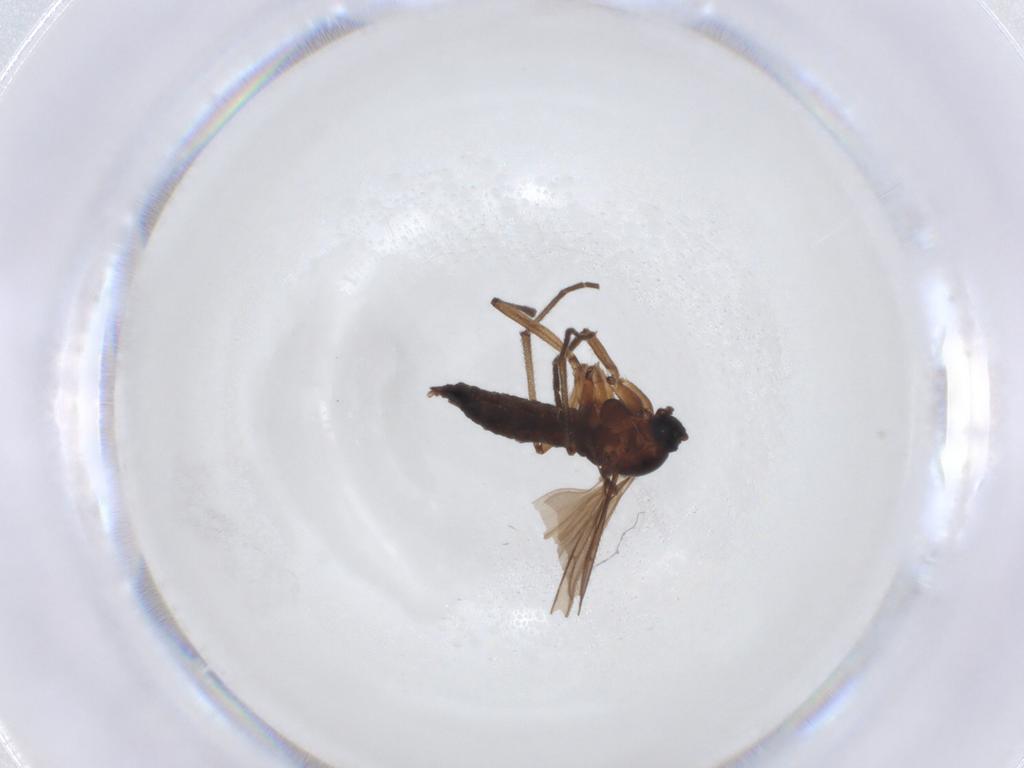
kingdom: Animalia
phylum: Arthropoda
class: Insecta
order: Diptera
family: Sciaridae
